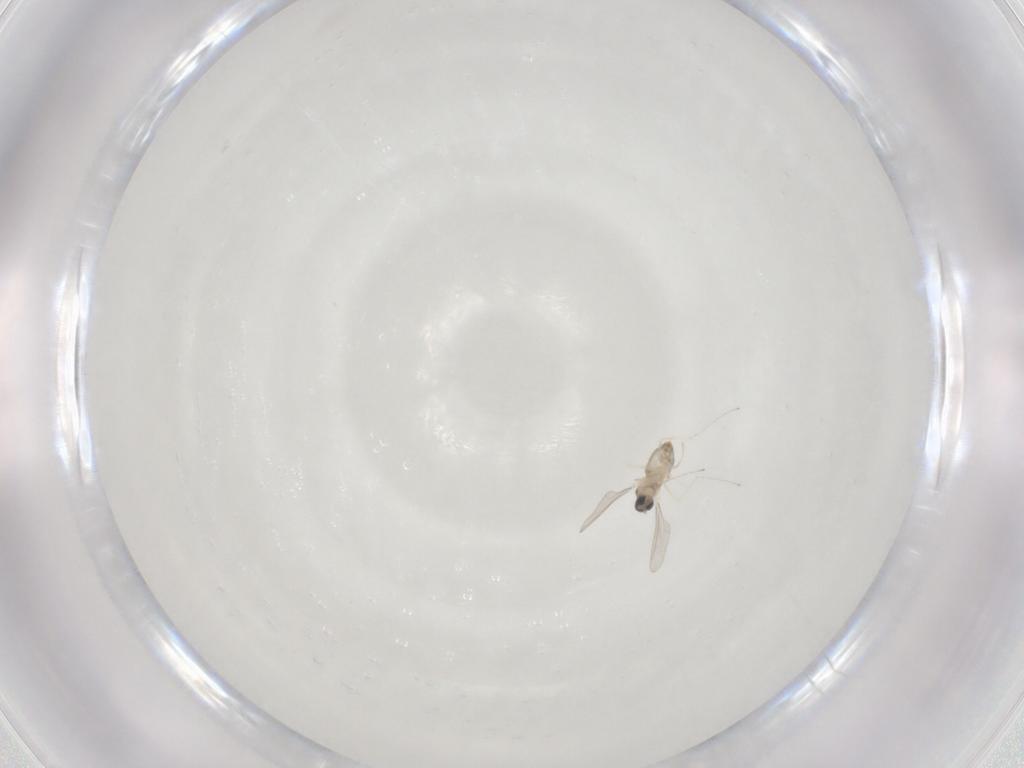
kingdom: Animalia
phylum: Arthropoda
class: Insecta
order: Diptera
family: Cecidomyiidae
